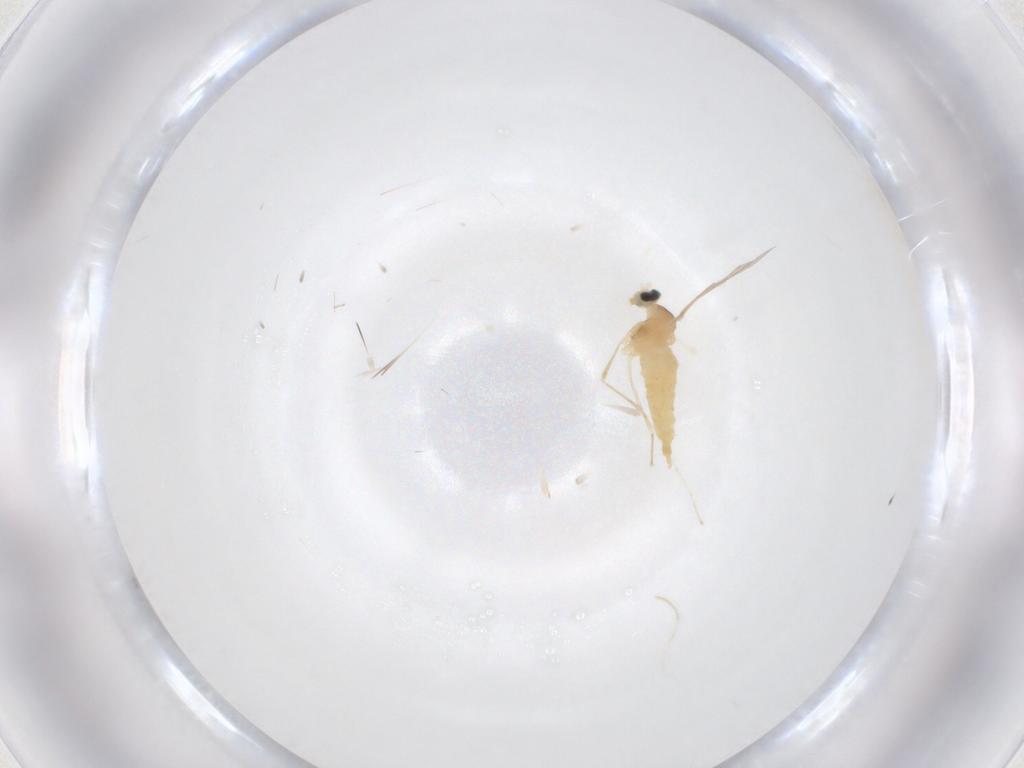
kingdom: Animalia
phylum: Arthropoda
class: Insecta
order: Diptera
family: Cecidomyiidae
